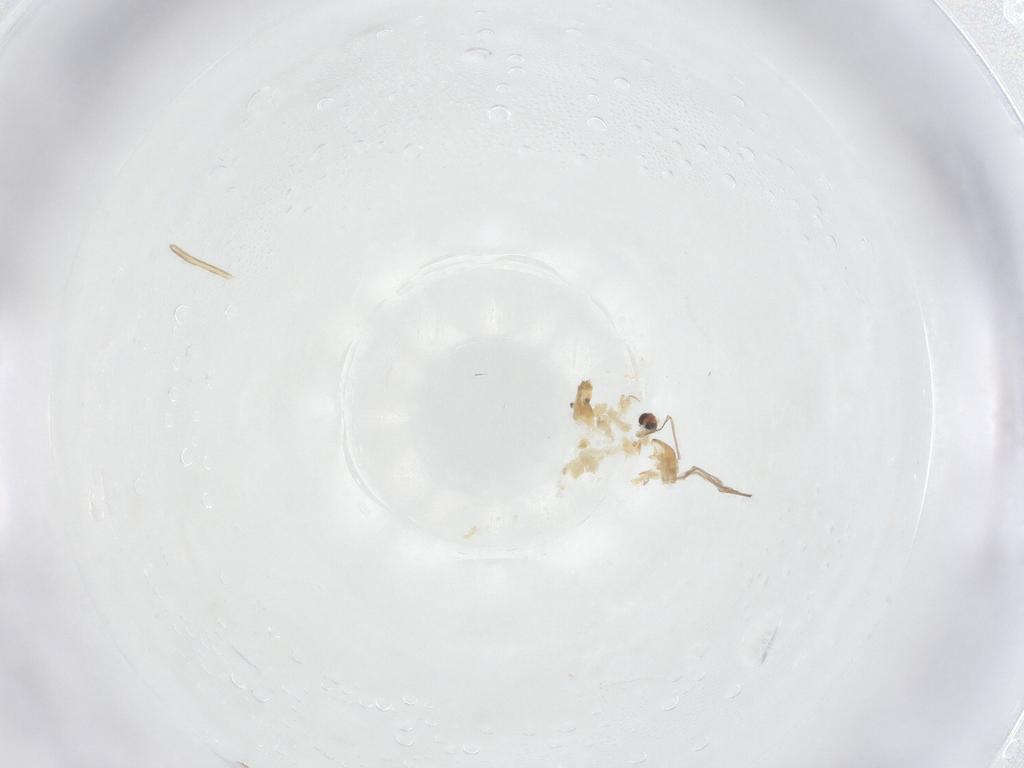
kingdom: Animalia
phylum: Arthropoda
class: Insecta
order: Diptera
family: Chironomidae
